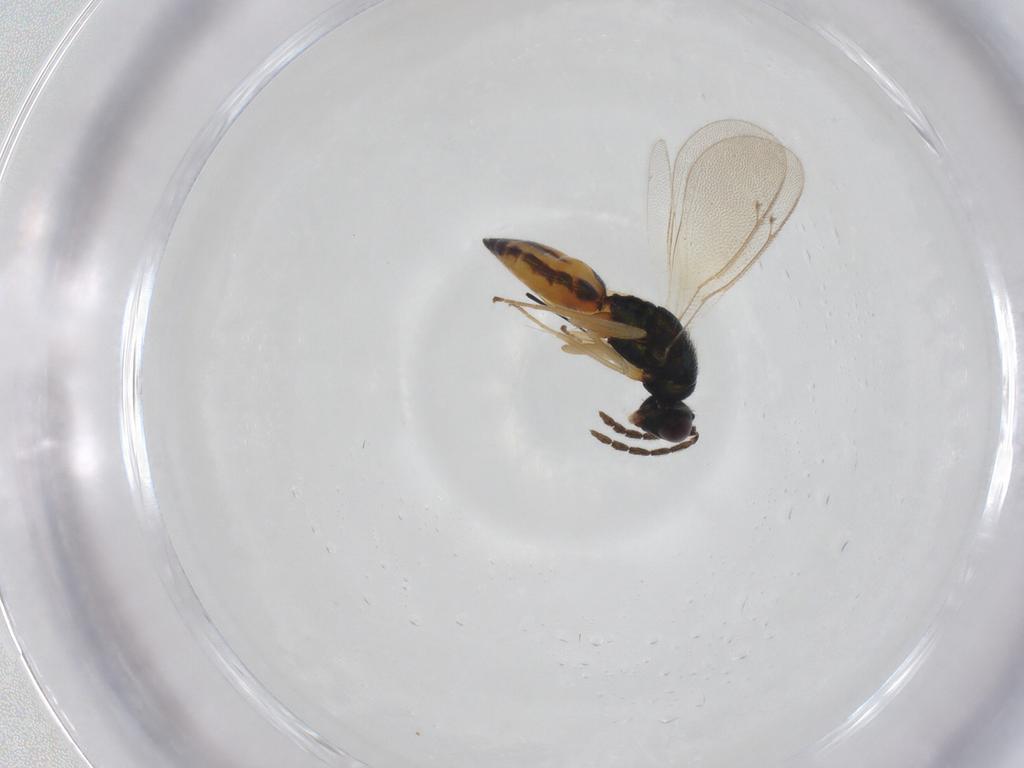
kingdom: Animalia
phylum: Arthropoda
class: Insecta
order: Hymenoptera
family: Eulophidae
